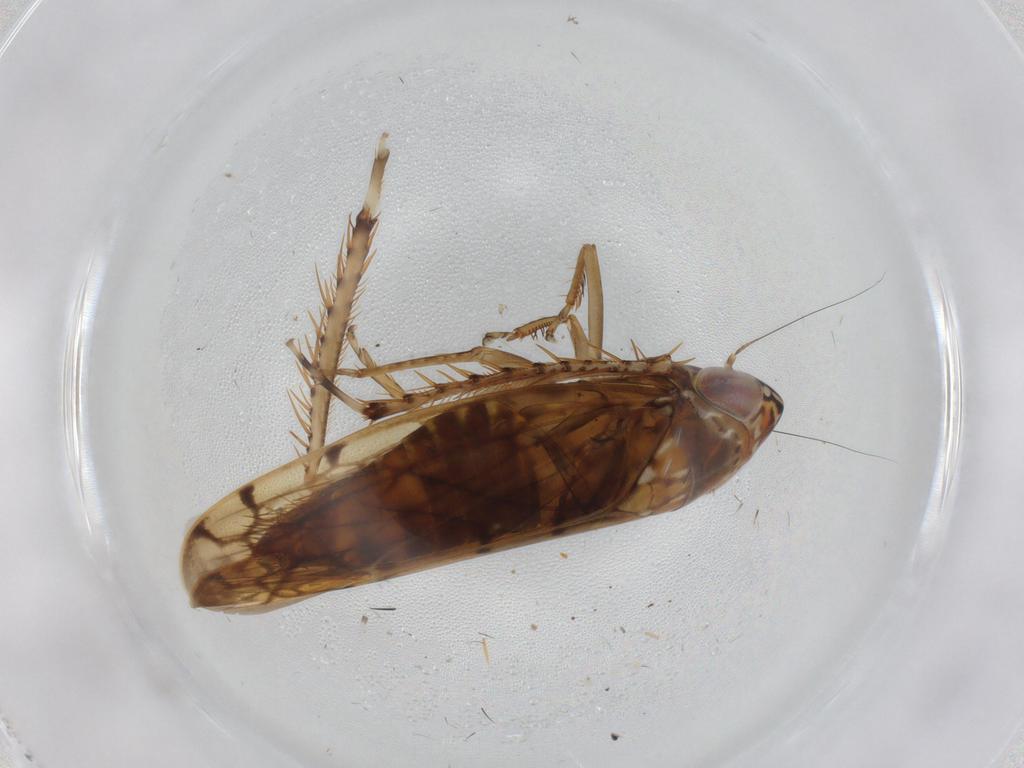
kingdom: Animalia
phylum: Arthropoda
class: Insecta
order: Hemiptera
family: Cicadellidae
